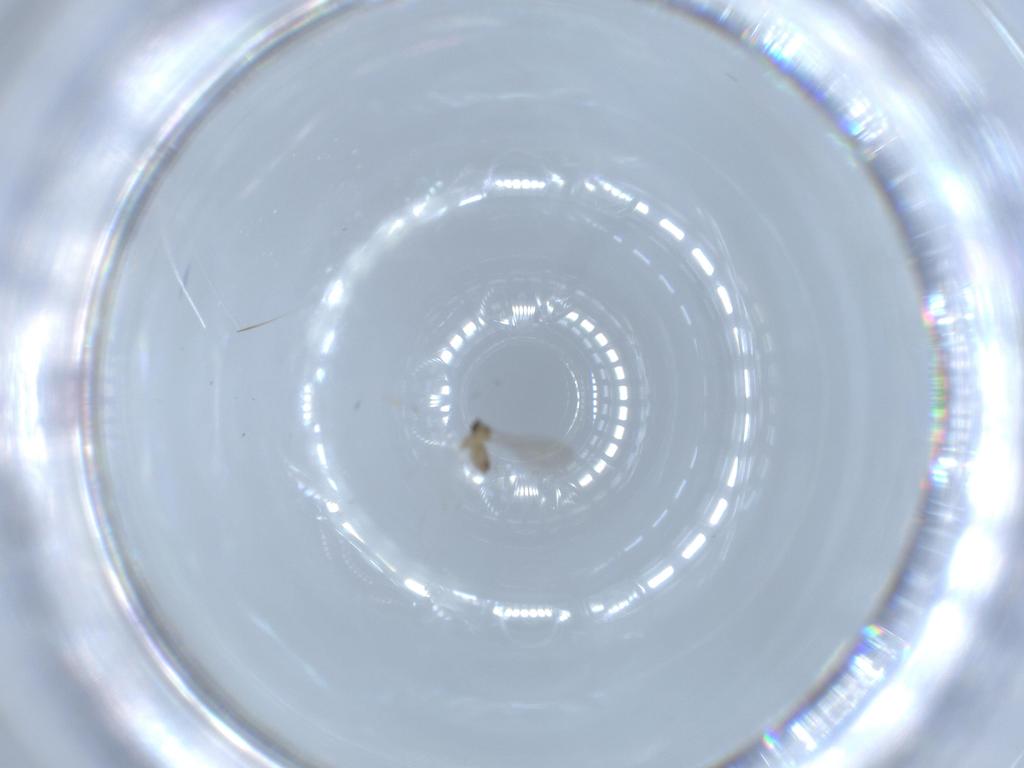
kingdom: Animalia
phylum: Arthropoda
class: Insecta
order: Diptera
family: Cecidomyiidae
